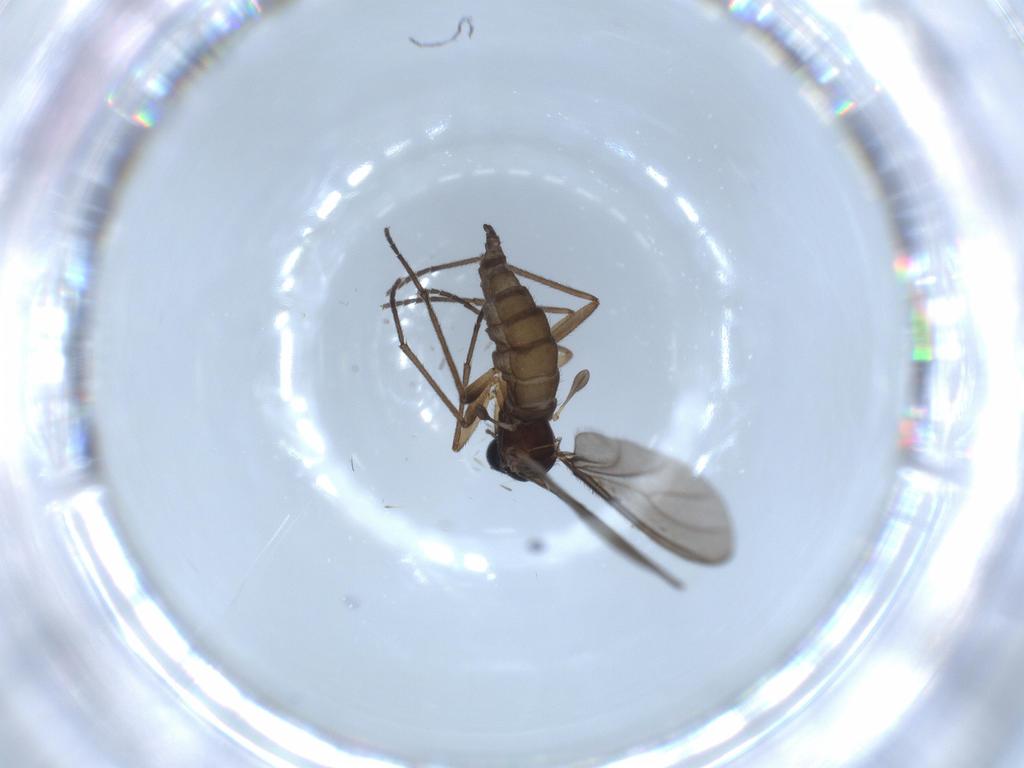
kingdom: Animalia
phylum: Arthropoda
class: Insecta
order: Diptera
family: Sciaridae
